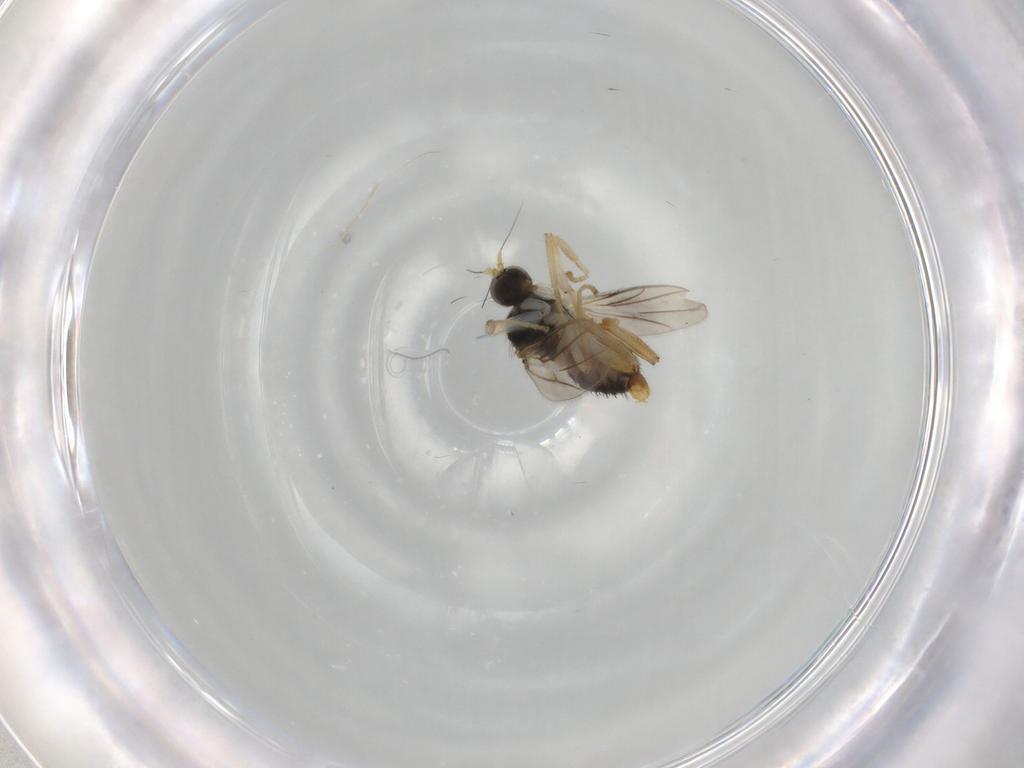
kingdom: Animalia
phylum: Arthropoda
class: Insecta
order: Diptera
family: Hybotidae
